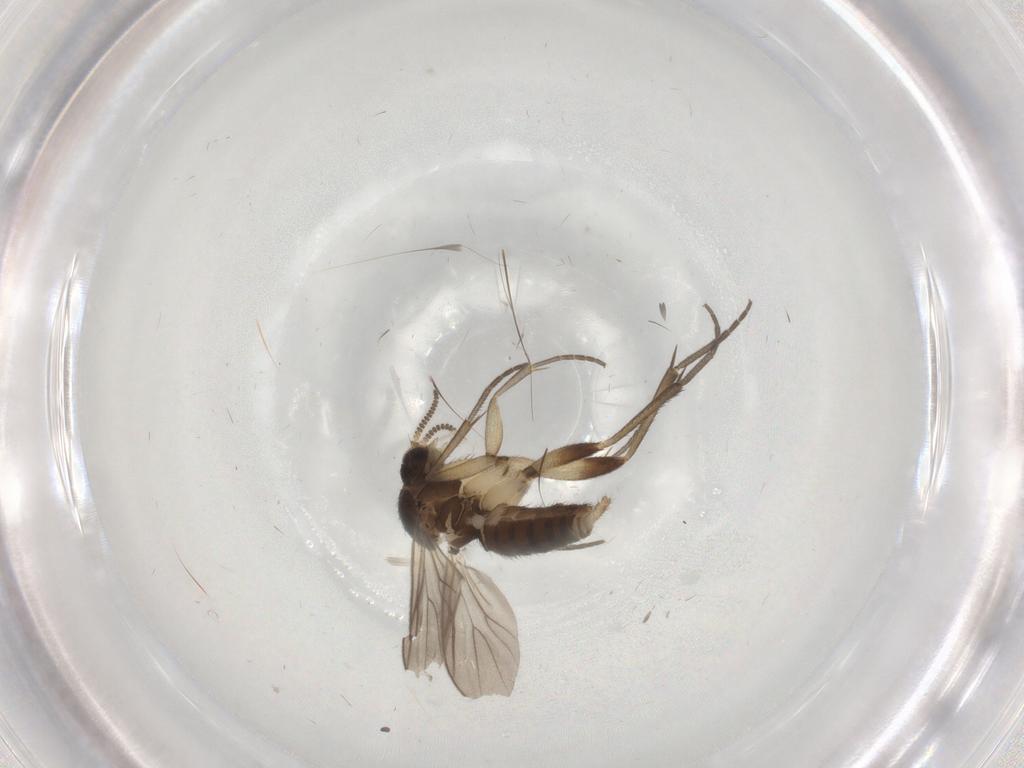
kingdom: Animalia
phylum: Arthropoda
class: Insecta
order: Diptera
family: Mycetophilidae
